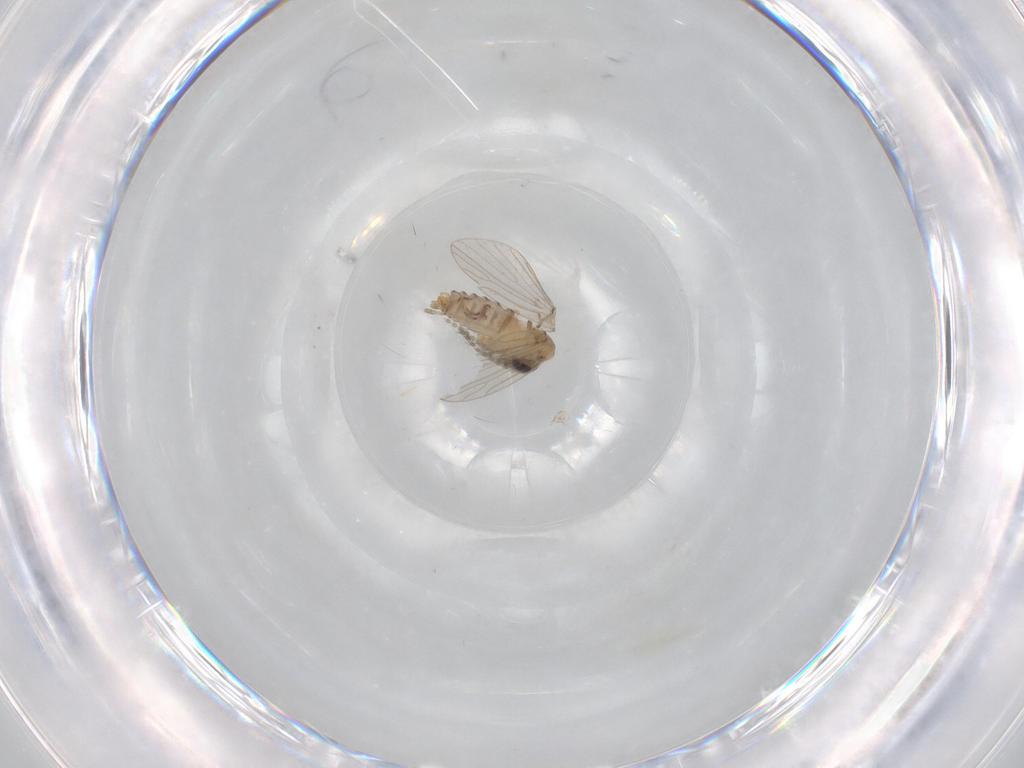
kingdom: Animalia
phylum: Arthropoda
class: Insecta
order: Diptera
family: Psychodidae
